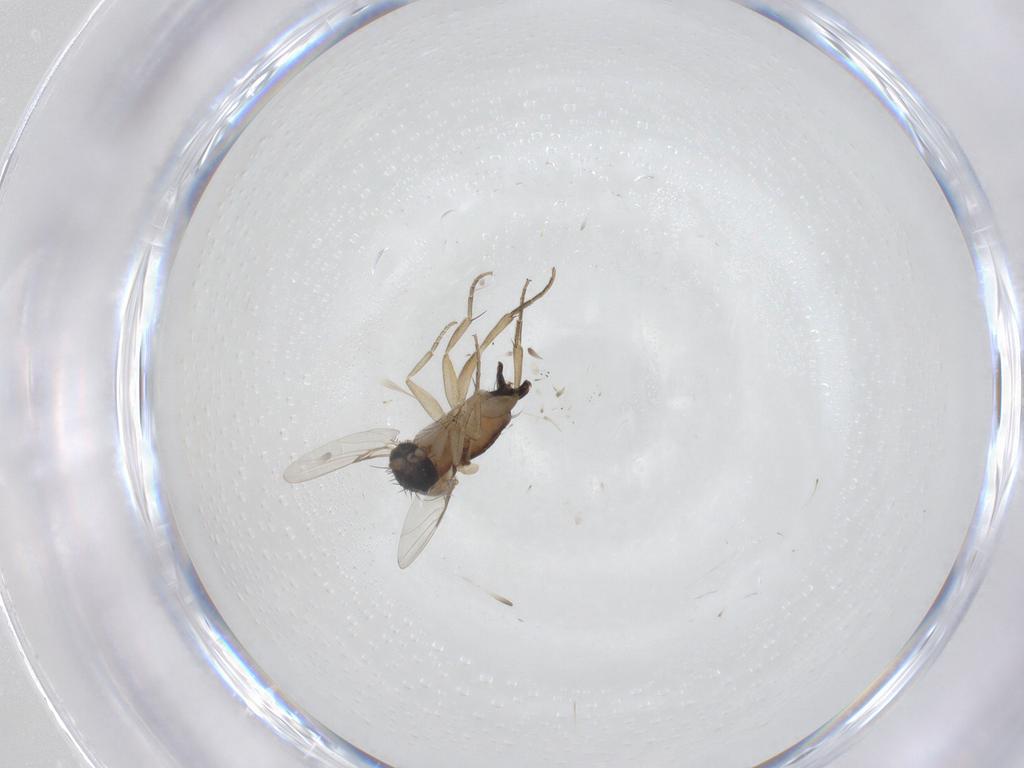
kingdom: Animalia
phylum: Arthropoda
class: Insecta
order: Diptera
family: Phoridae
